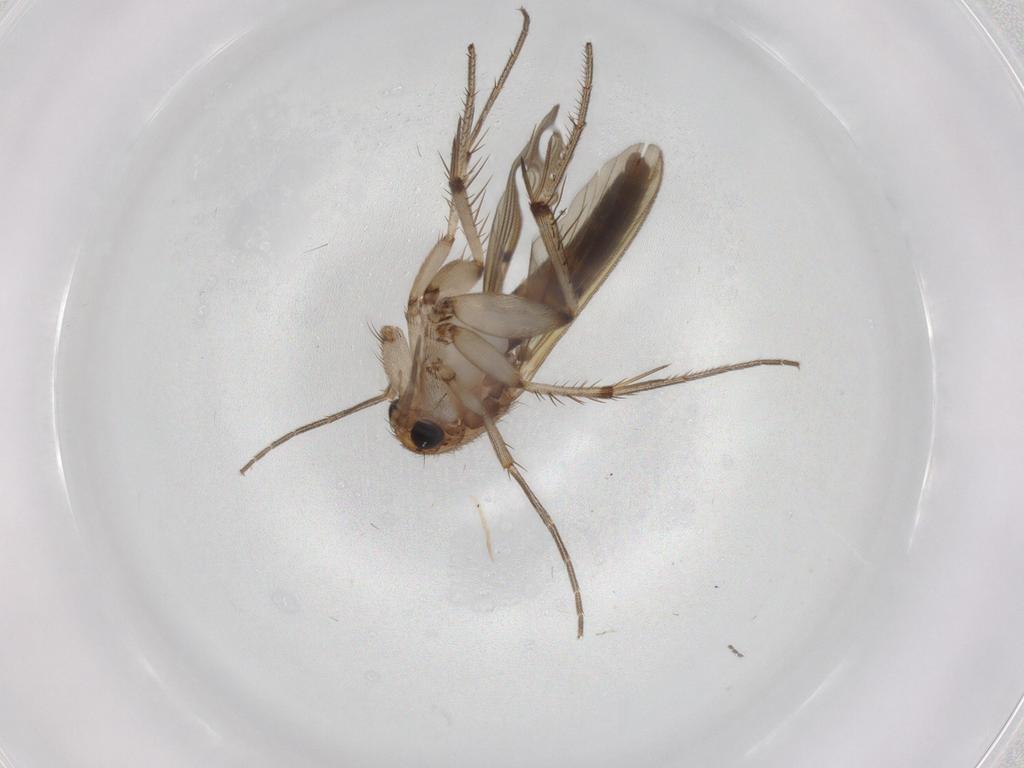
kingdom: Animalia
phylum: Arthropoda
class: Insecta
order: Diptera
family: Mycetophilidae
